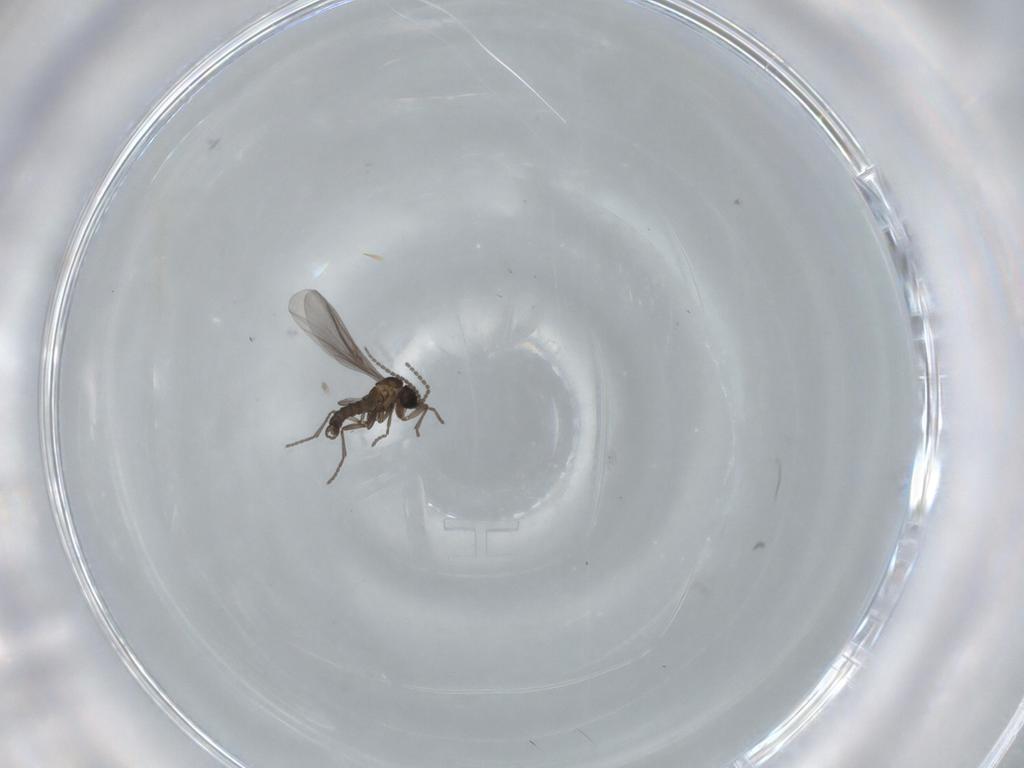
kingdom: Animalia
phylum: Arthropoda
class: Insecta
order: Diptera
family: Ceratopogonidae
